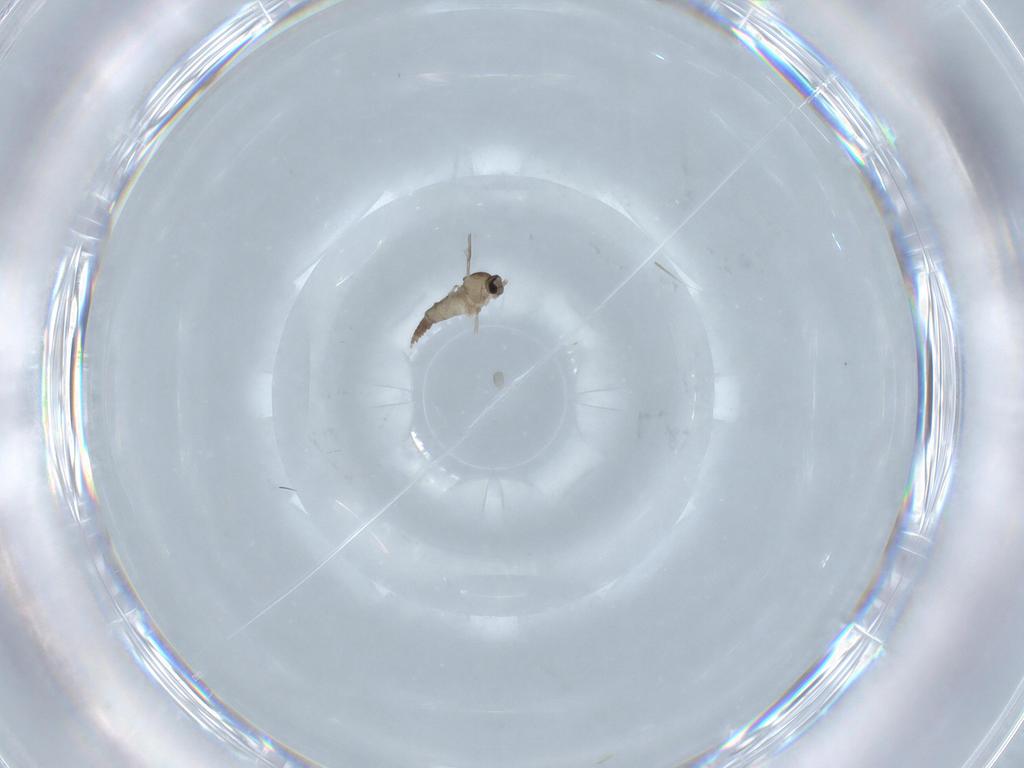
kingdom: Animalia
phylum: Arthropoda
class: Insecta
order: Diptera
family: Cecidomyiidae
